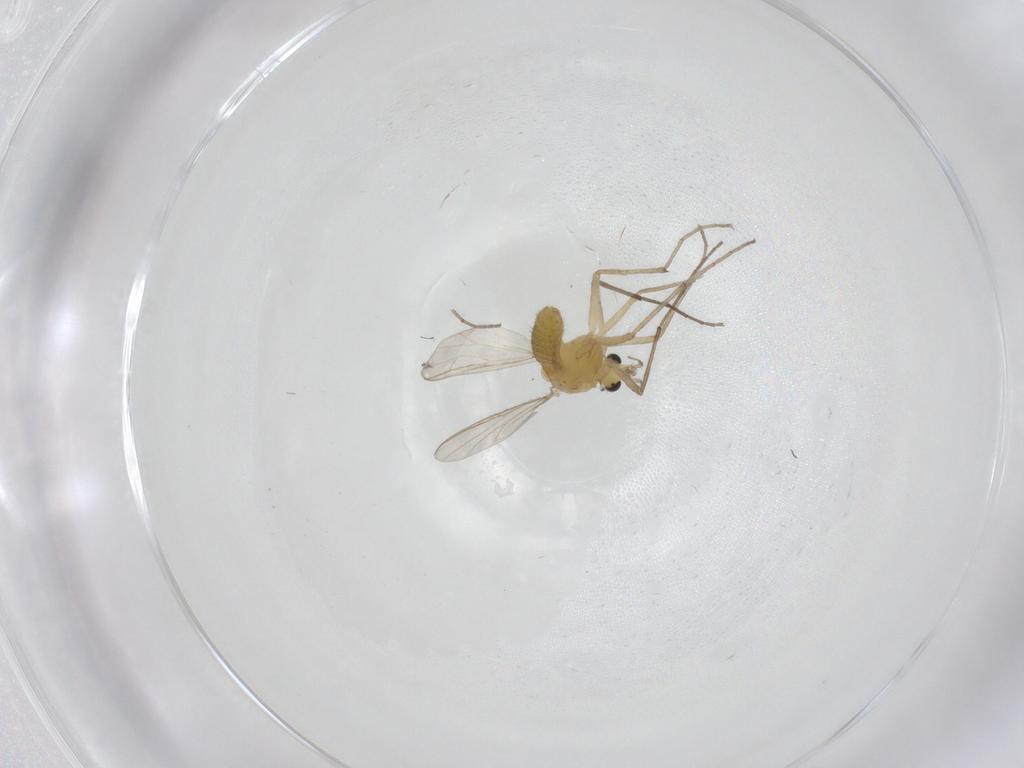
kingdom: Animalia
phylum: Arthropoda
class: Insecta
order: Diptera
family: Chironomidae
